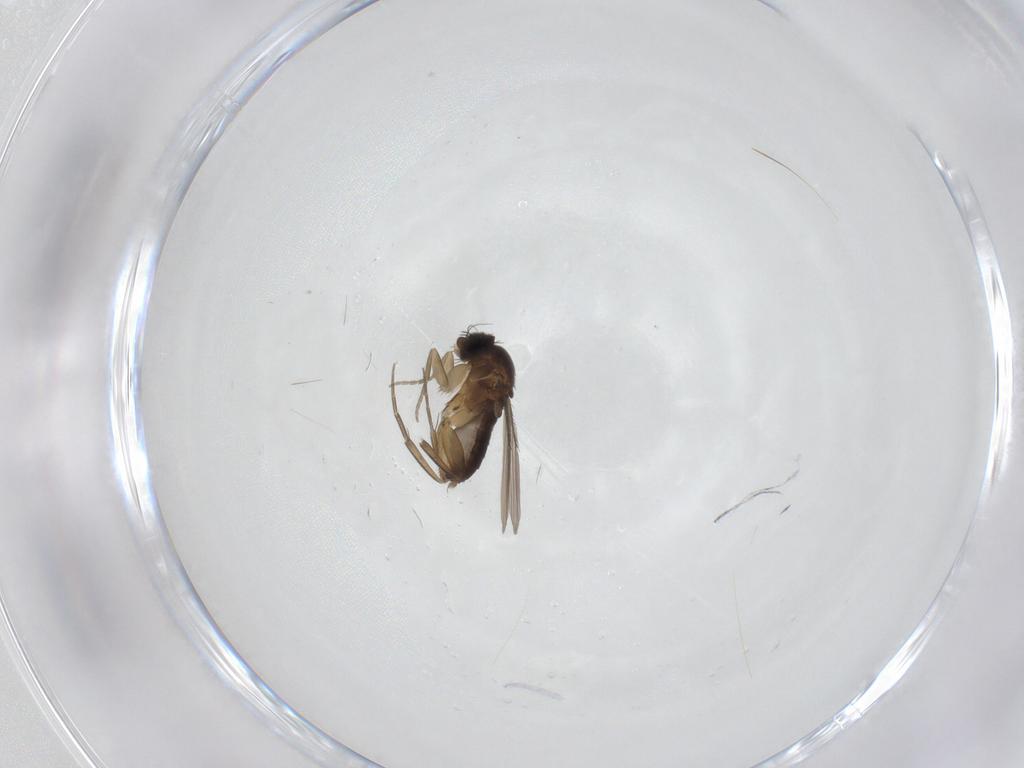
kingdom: Animalia
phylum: Arthropoda
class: Insecta
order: Diptera
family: Phoridae
